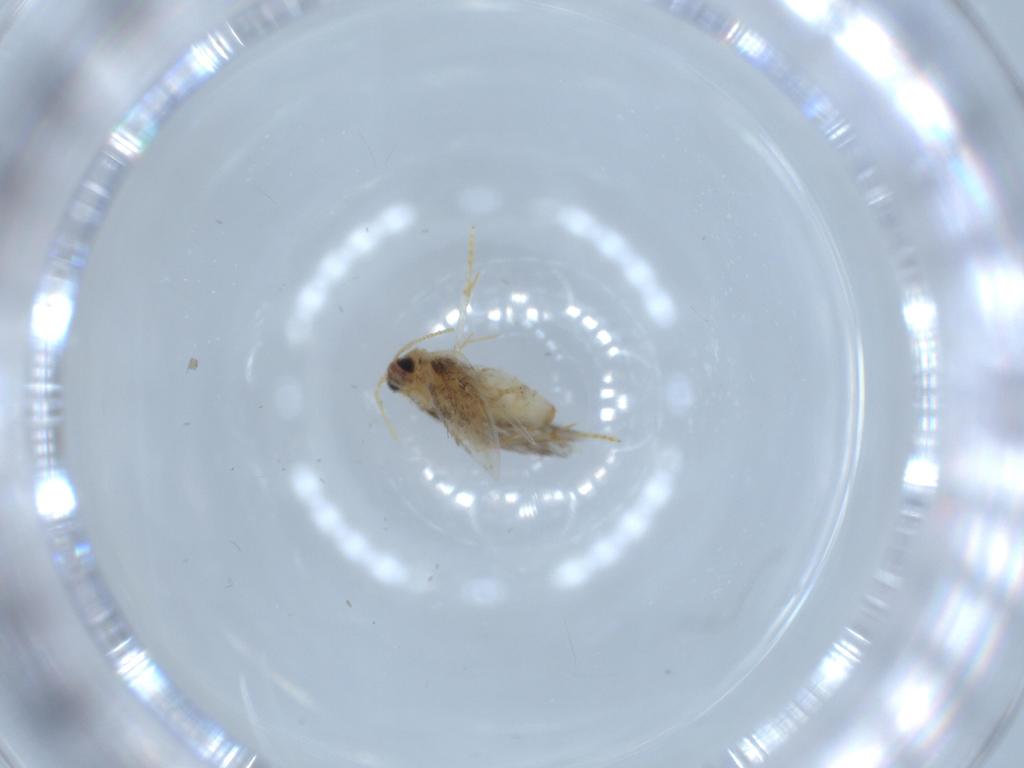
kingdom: Animalia
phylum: Arthropoda
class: Insecta
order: Lepidoptera
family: Copromorphidae
